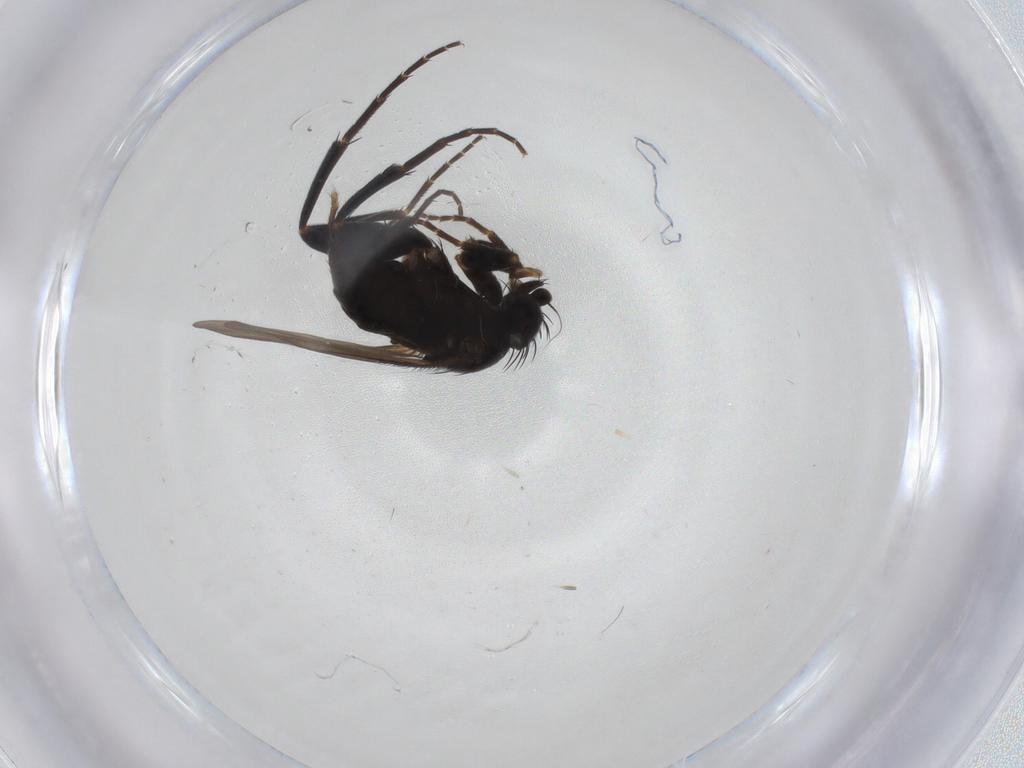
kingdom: Animalia
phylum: Arthropoda
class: Insecta
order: Diptera
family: Phoridae
